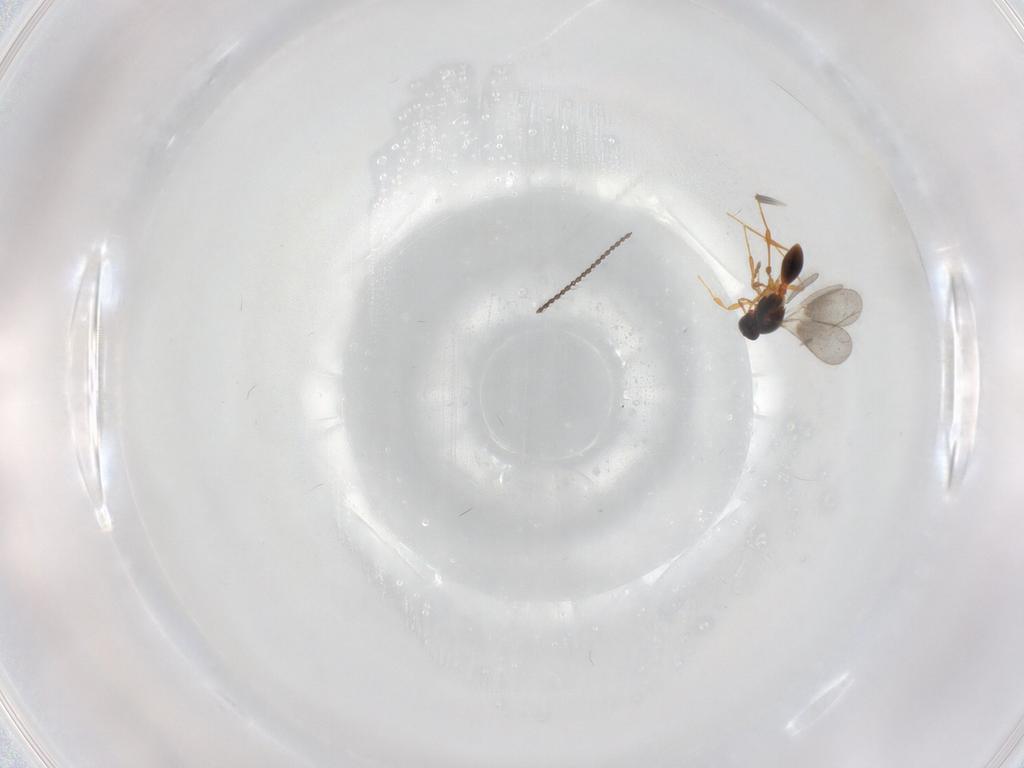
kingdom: Animalia
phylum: Arthropoda
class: Insecta
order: Hymenoptera
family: Platygastridae
